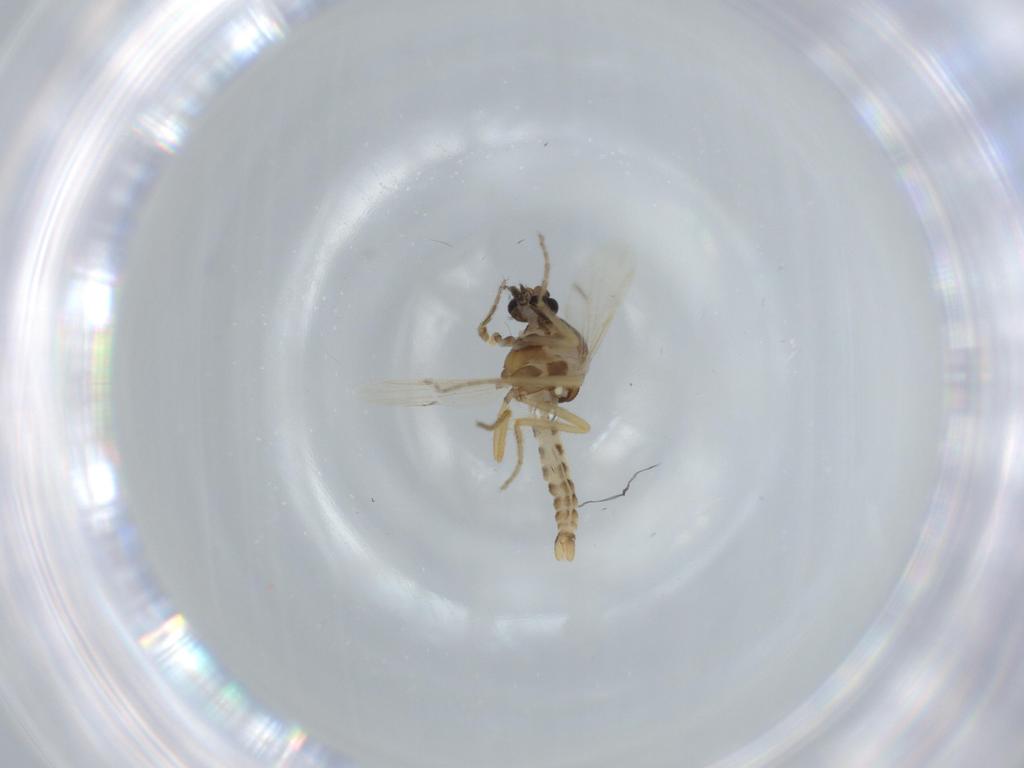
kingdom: Animalia
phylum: Arthropoda
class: Insecta
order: Diptera
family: Ceratopogonidae
